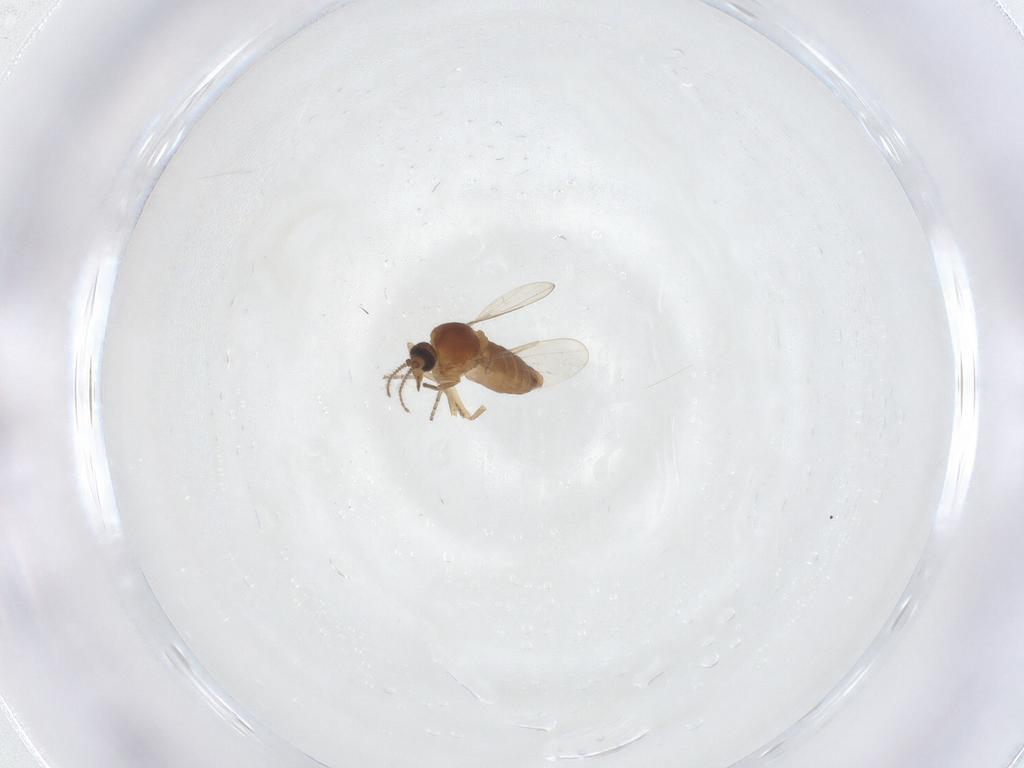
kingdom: Animalia
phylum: Arthropoda
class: Insecta
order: Diptera
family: Ceratopogonidae
